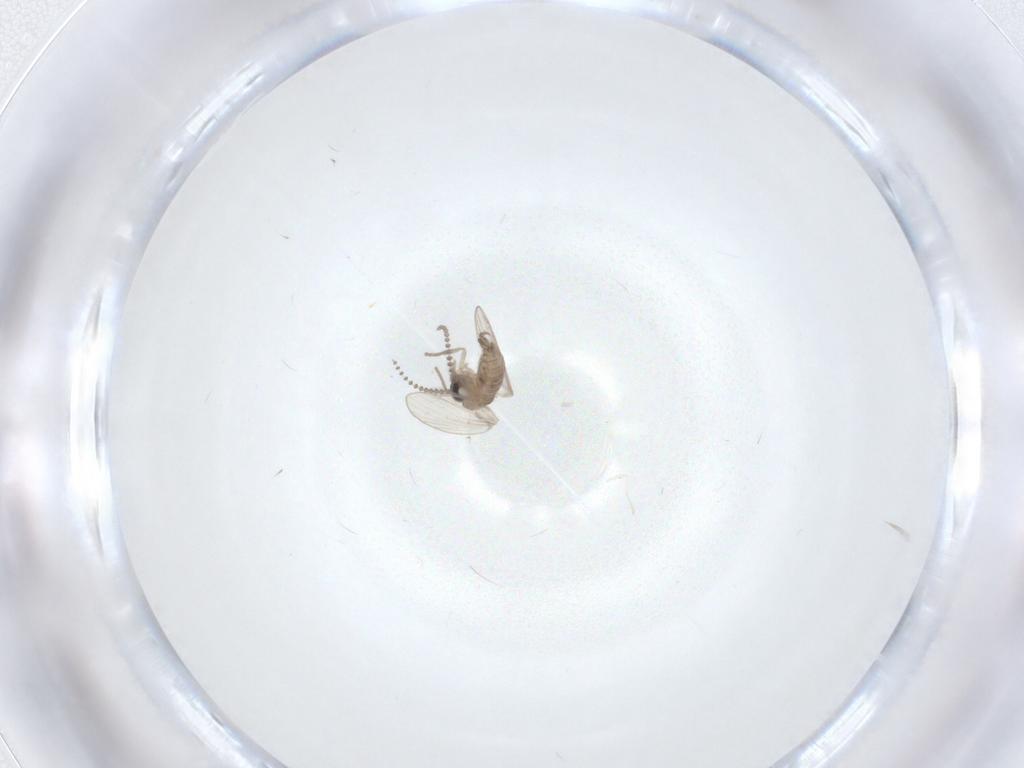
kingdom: Animalia
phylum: Arthropoda
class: Insecta
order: Diptera
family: Psychodidae
